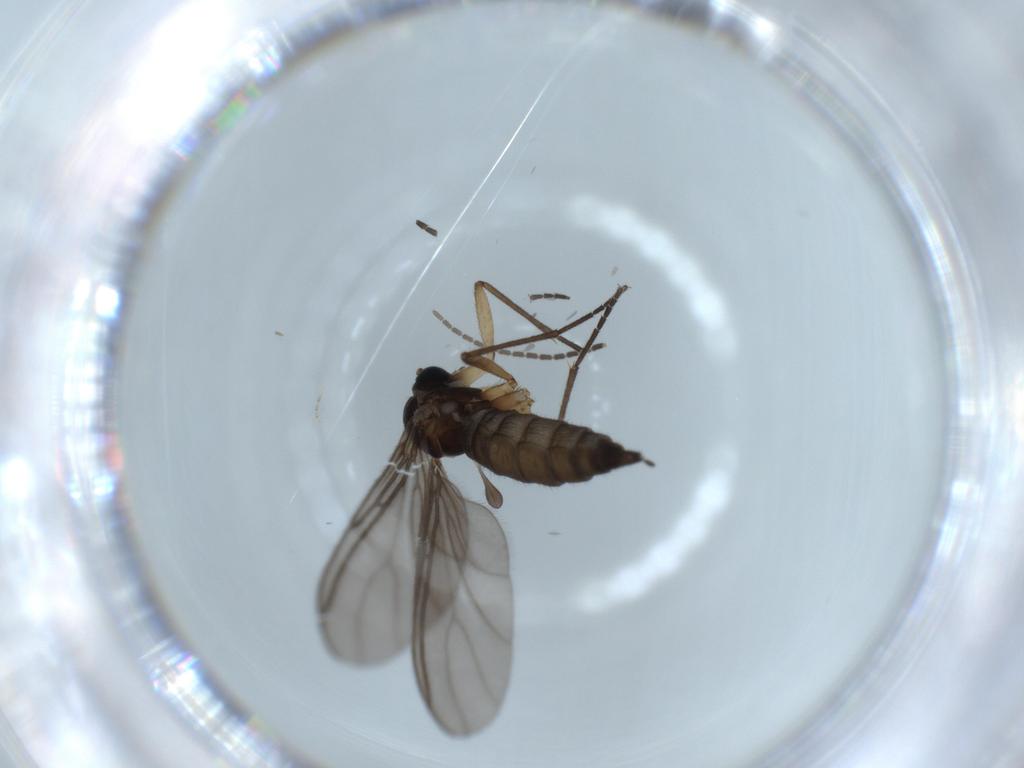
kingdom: Animalia
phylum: Arthropoda
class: Insecta
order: Diptera
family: Sciaridae
